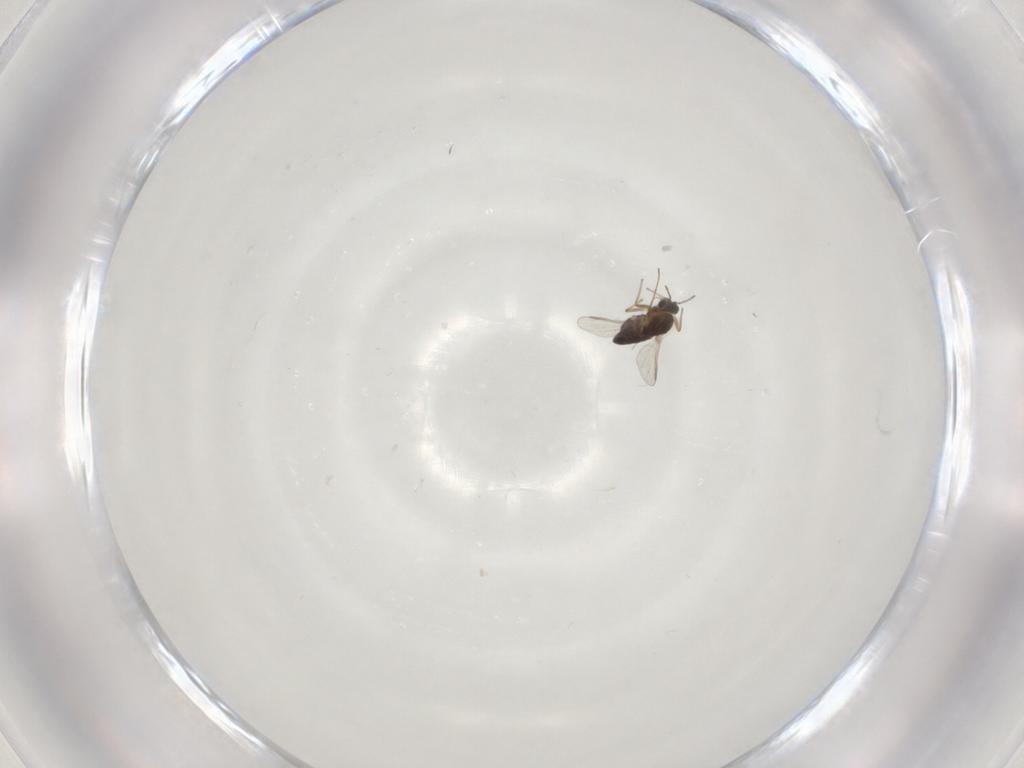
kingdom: Animalia
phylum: Arthropoda
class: Insecta
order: Diptera
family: Chironomidae
